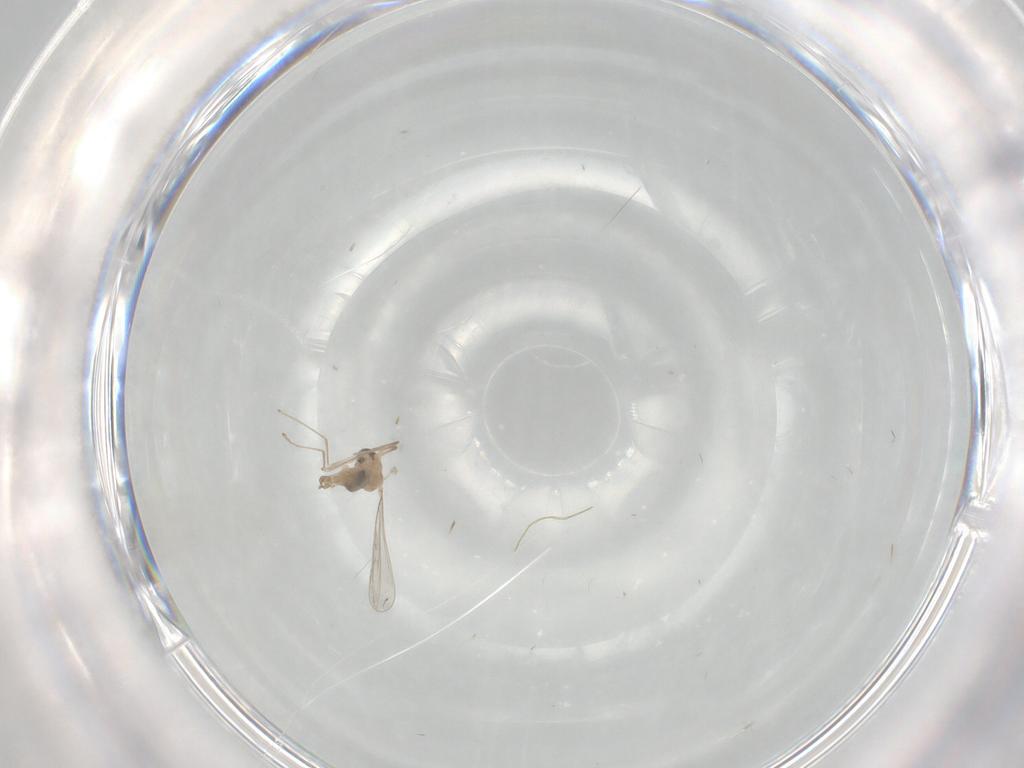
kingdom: Animalia
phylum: Arthropoda
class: Insecta
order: Diptera
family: Cecidomyiidae
